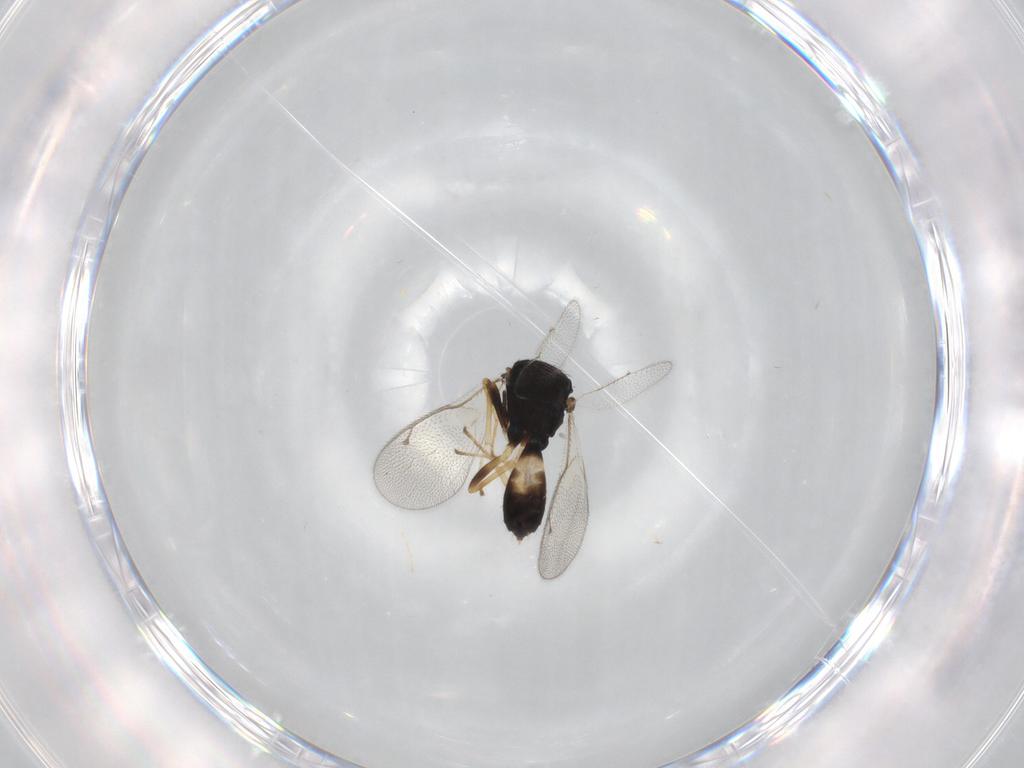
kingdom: Animalia
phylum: Arthropoda
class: Insecta
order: Hymenoptera
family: Pteromalidae
